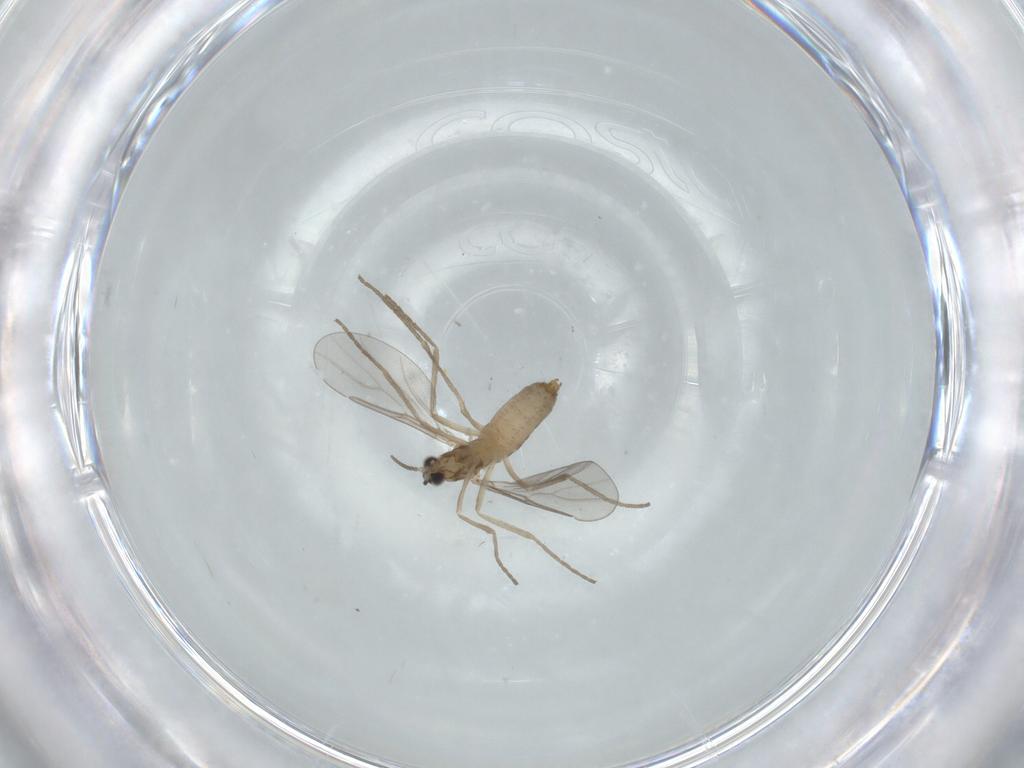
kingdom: Animalia
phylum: Arthropoda
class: Insecta
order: Diptera
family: Cecidomyiidae
